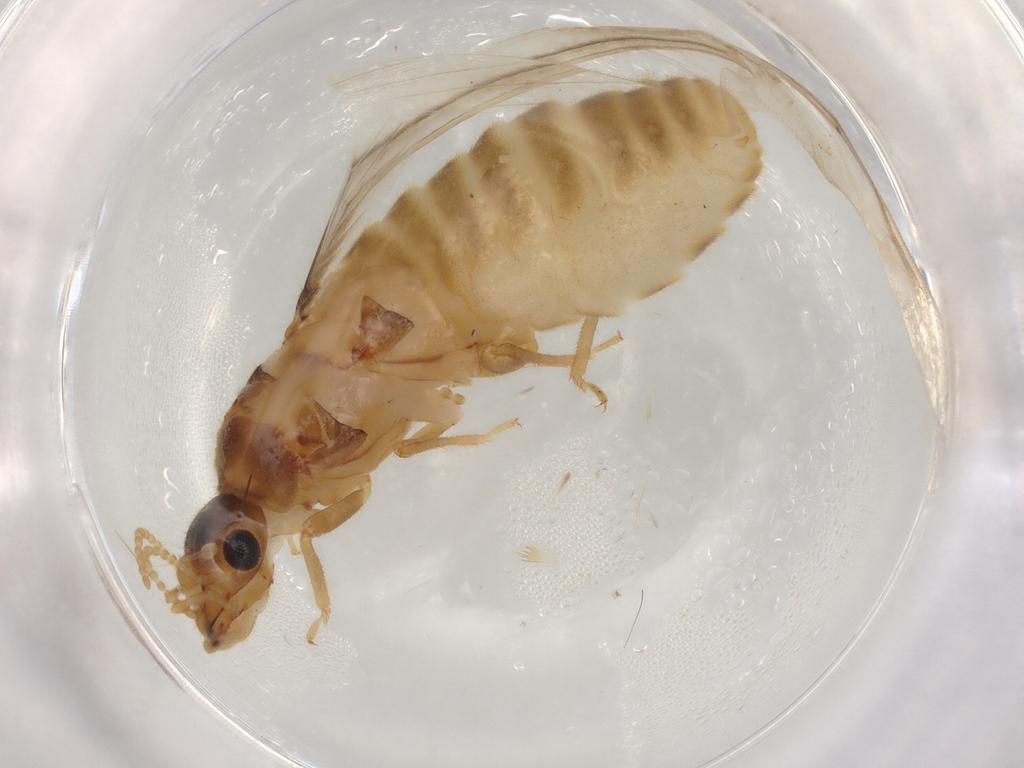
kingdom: Animalia
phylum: Arthropoda
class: Insecta
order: Blattodea
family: Termitidae
